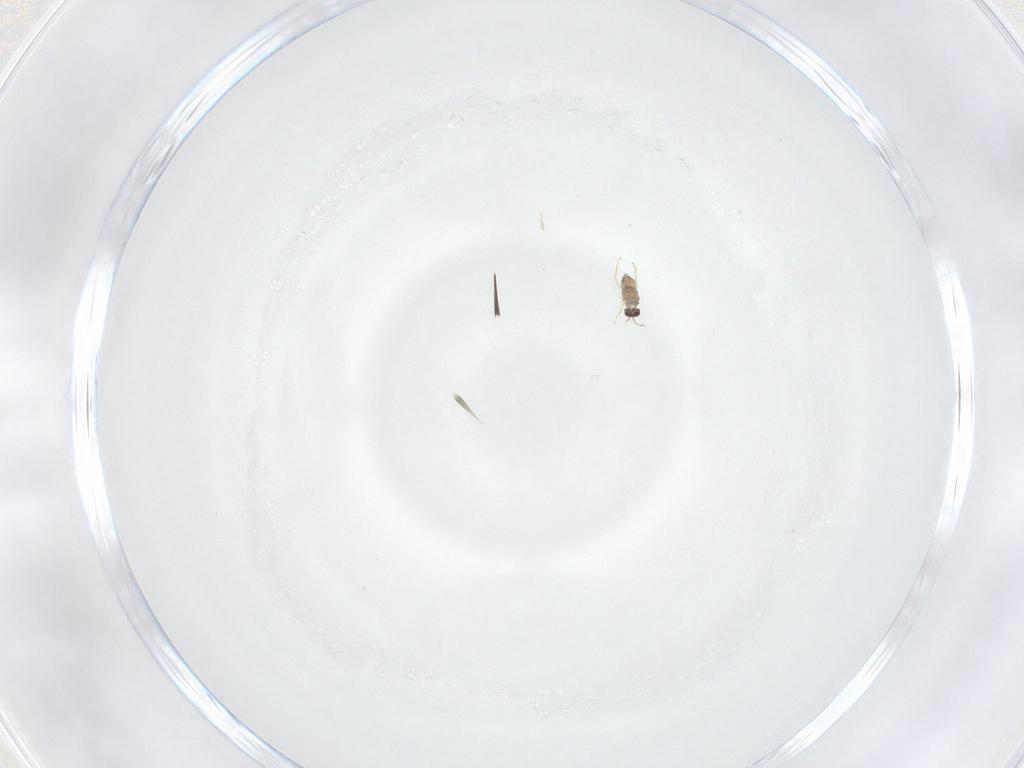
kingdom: Animalia
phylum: Arthropoda
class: Insecta
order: Hymenoptera
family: Mymaridae
